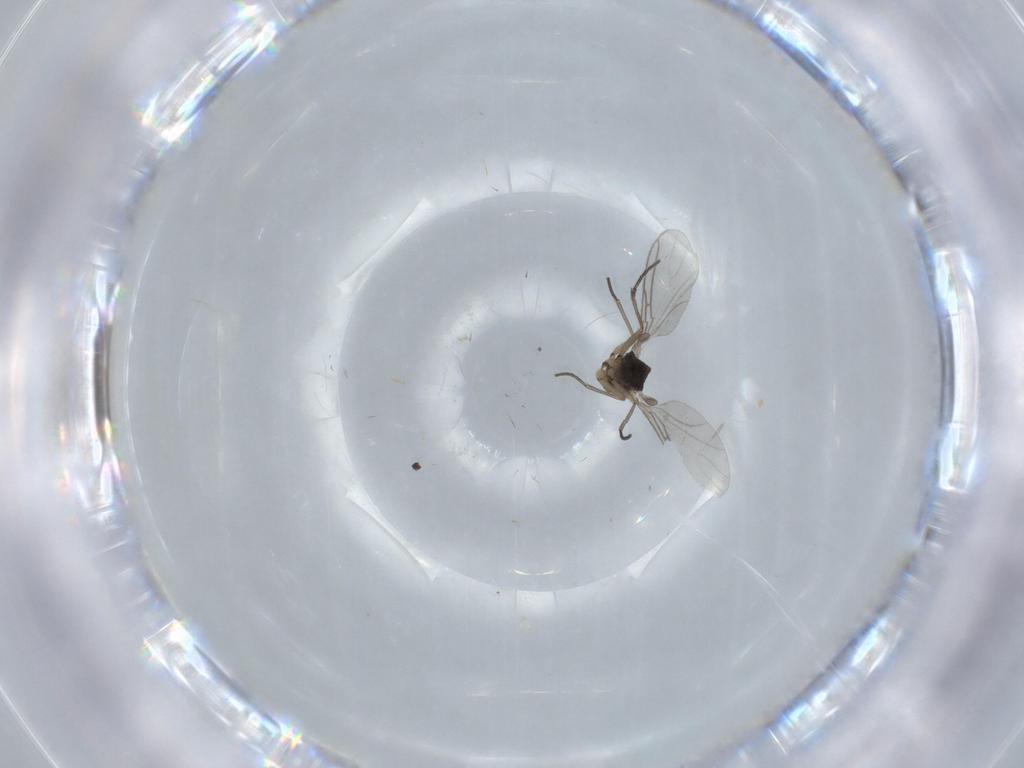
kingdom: Animalia
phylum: Arthropoda
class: Insecta
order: Diptera
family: Sciaridae
